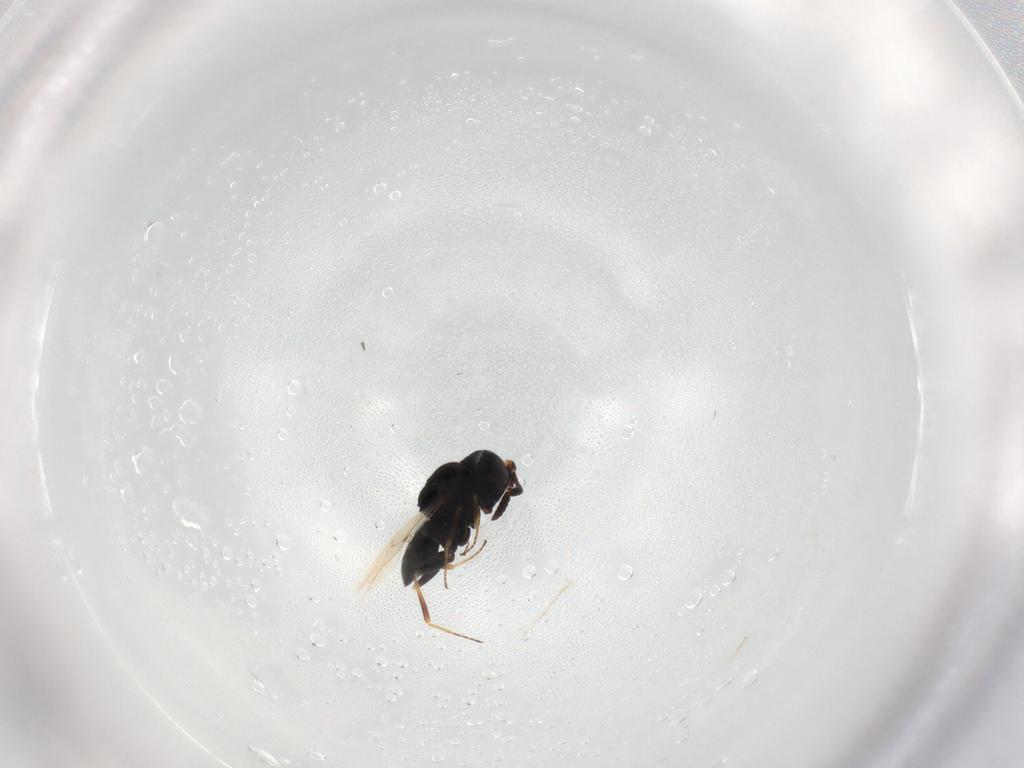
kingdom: Animalia
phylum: Arthropoda
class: Insecta
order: Hymenoptera
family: Scelionidae
